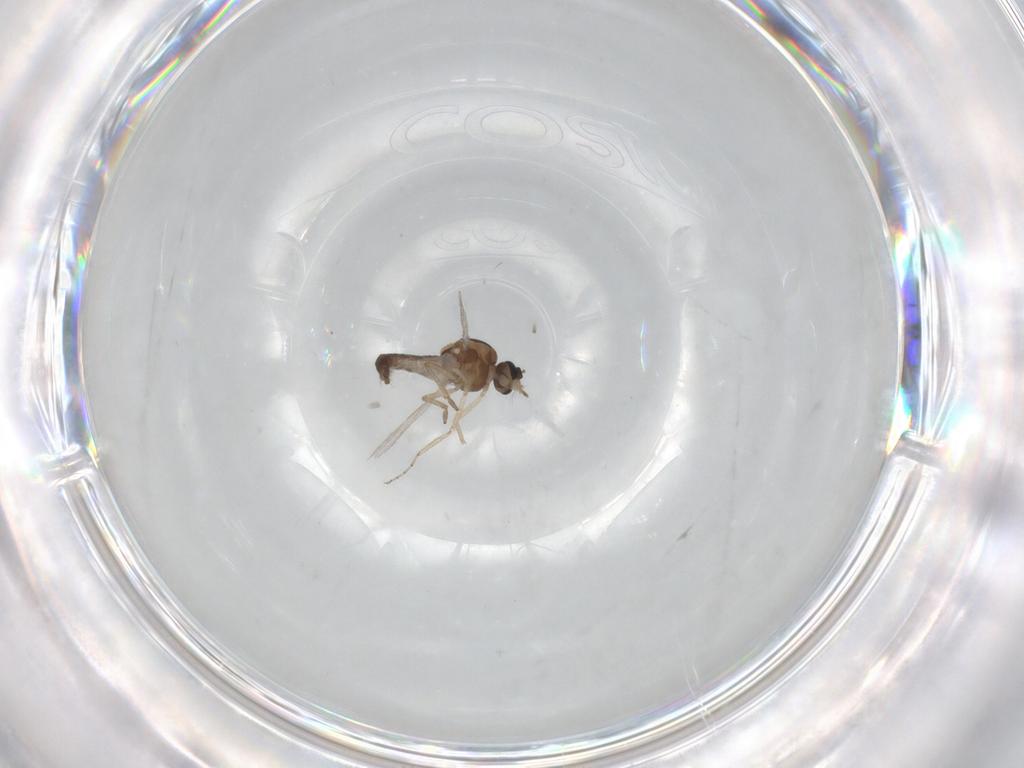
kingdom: Animalia
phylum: Arthropoda
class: Insecta
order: Diptera
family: Ceratopogonidae
